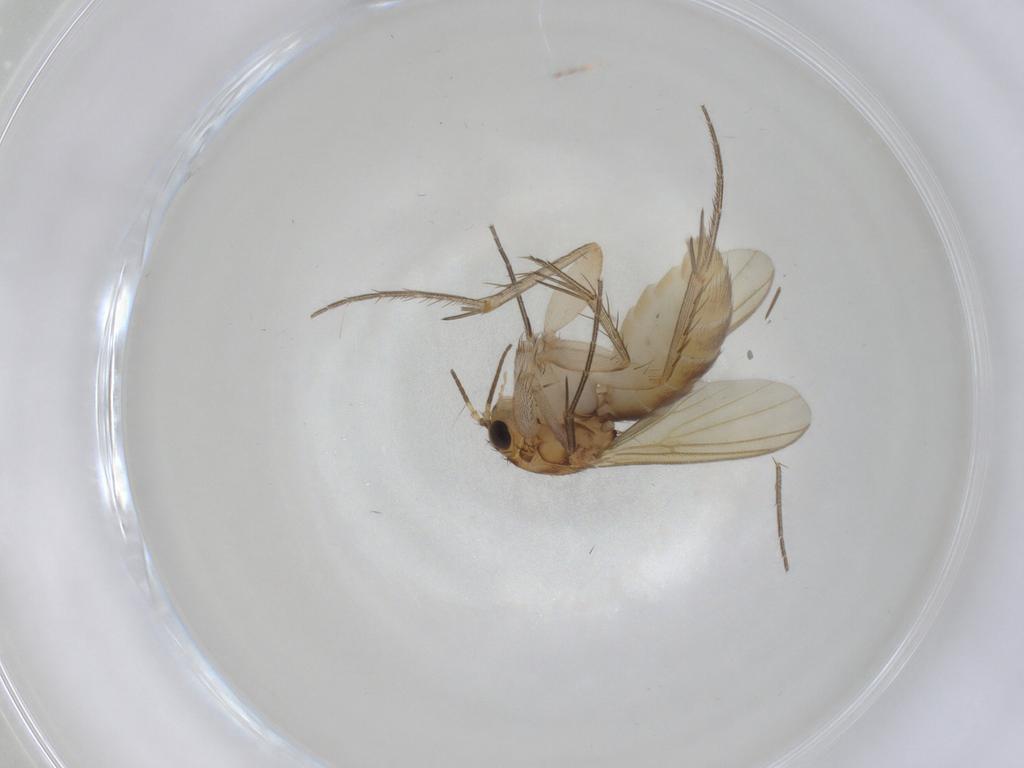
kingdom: Animalia
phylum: Arthropoda
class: Insecta
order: Diptera
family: Mycetophilidae
